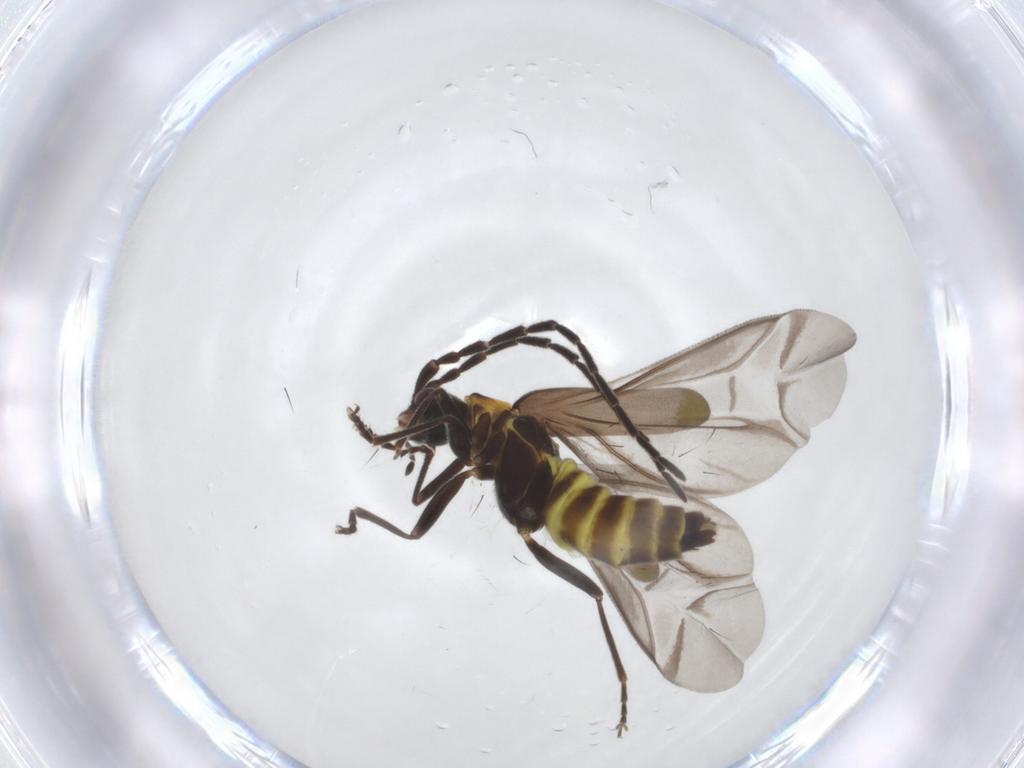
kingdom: Animalia
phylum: Arthropoda
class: Insecta
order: Coleoptera
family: Cantharidae
